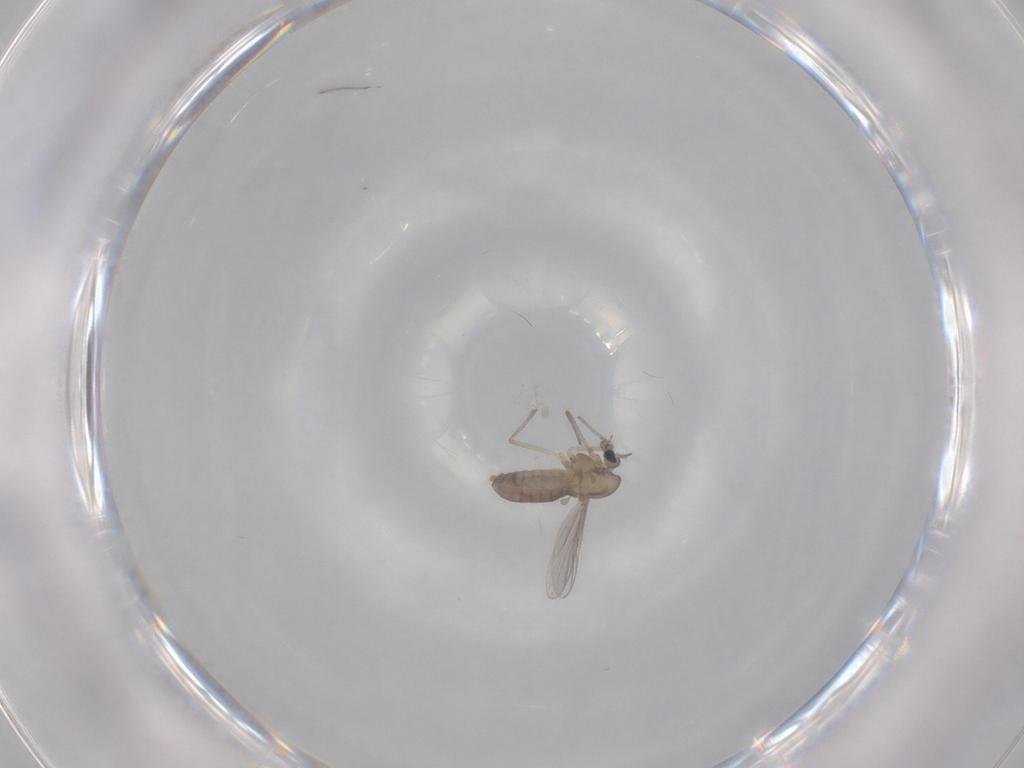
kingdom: Animalia
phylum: Arthropoda
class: Insecta
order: Diptera
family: Chironomidae
